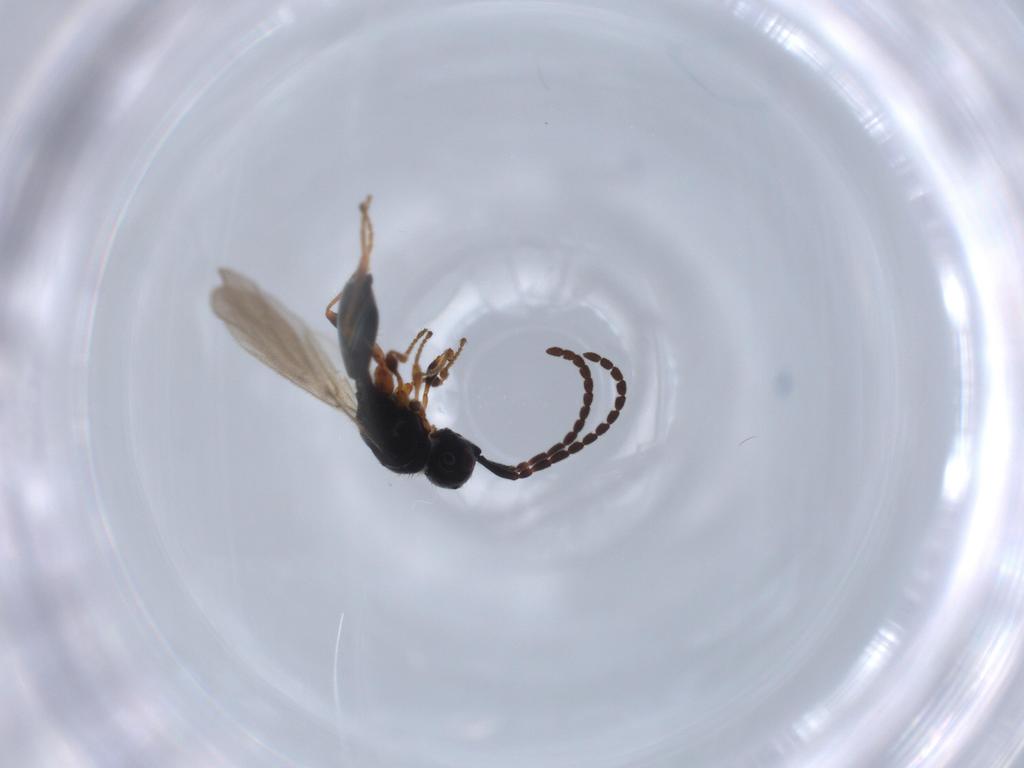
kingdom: Animalia
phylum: Arthropoda
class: Insecta
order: Hymenoptera
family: Diapriidae
